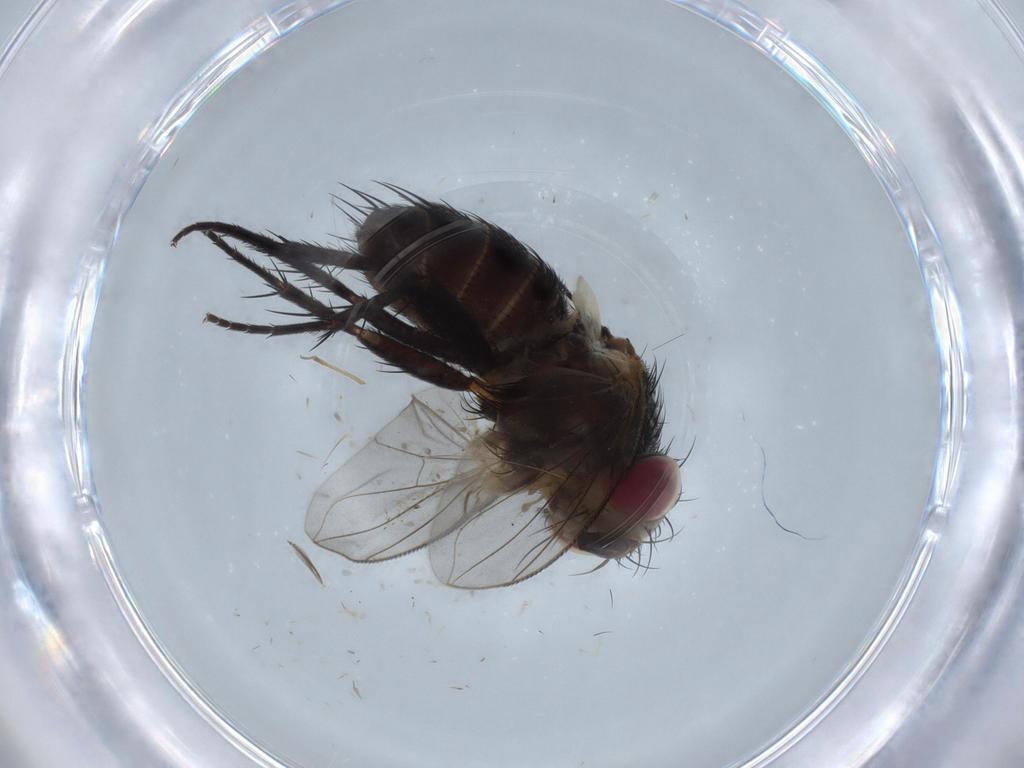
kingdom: Animalia
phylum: Arthropoda
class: Insecta
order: Diptera
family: Tachinidae
